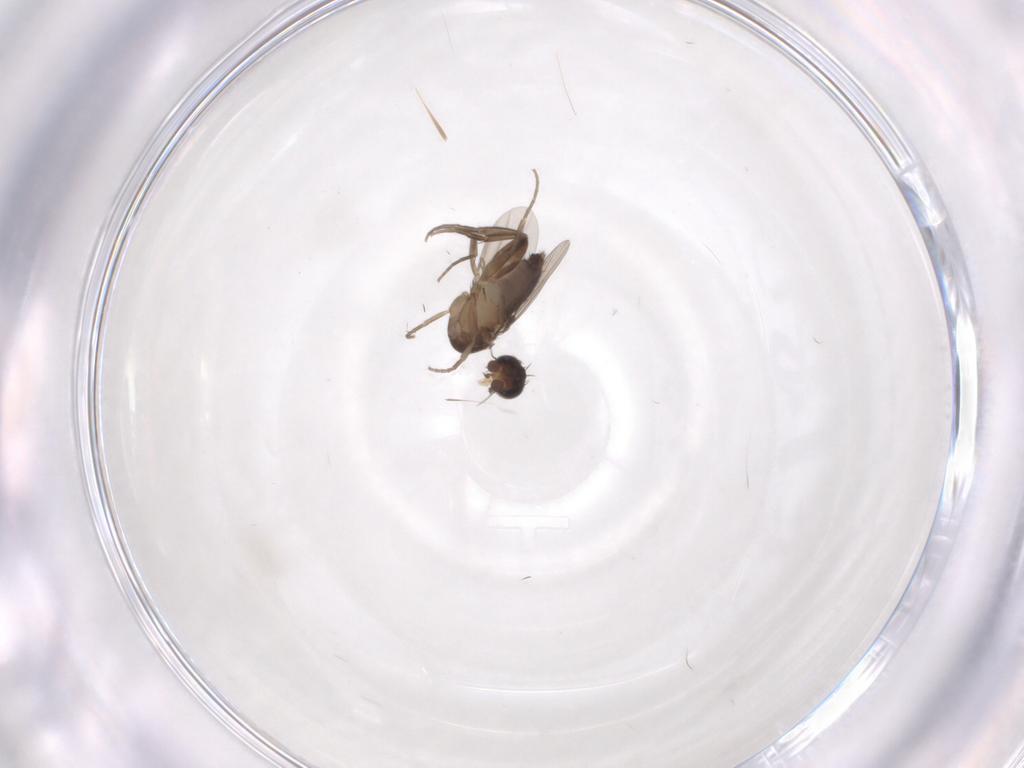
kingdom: Animalia
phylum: Arthropoda
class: Insecta
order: Diptera
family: Phoridae
